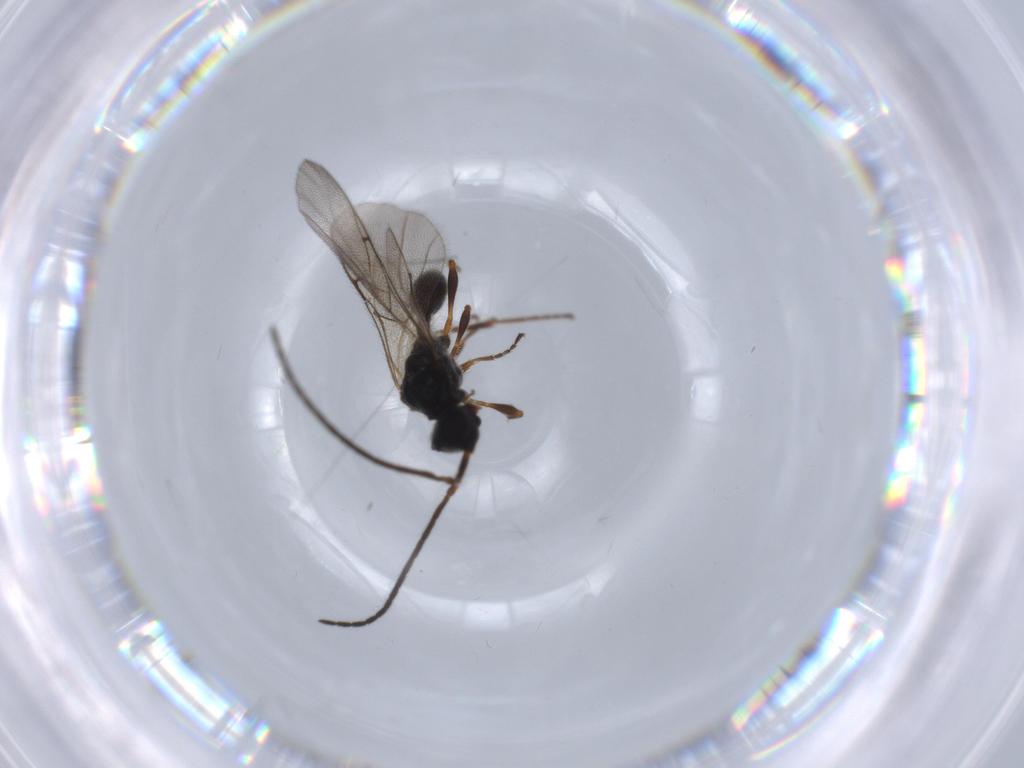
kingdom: Animalia
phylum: Arthropoda
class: Insecta
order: Hymenoptera
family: Diapriidae
